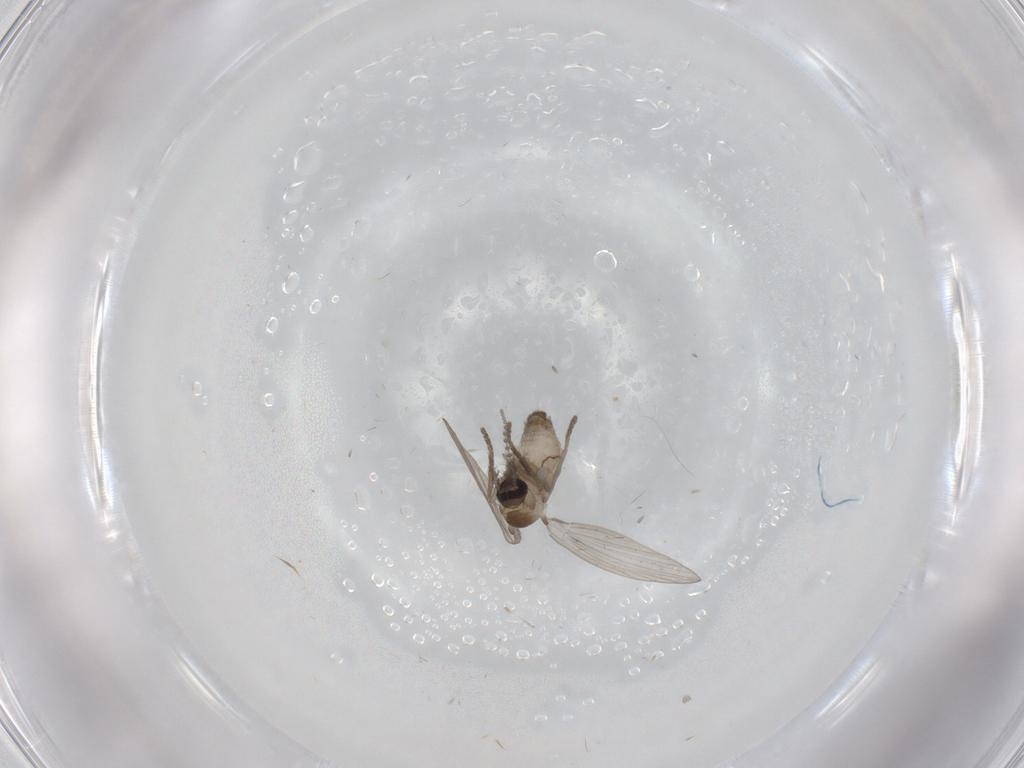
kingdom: Animalia
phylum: Arthropoda
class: Insecta
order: Diptera
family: Psychodidae
